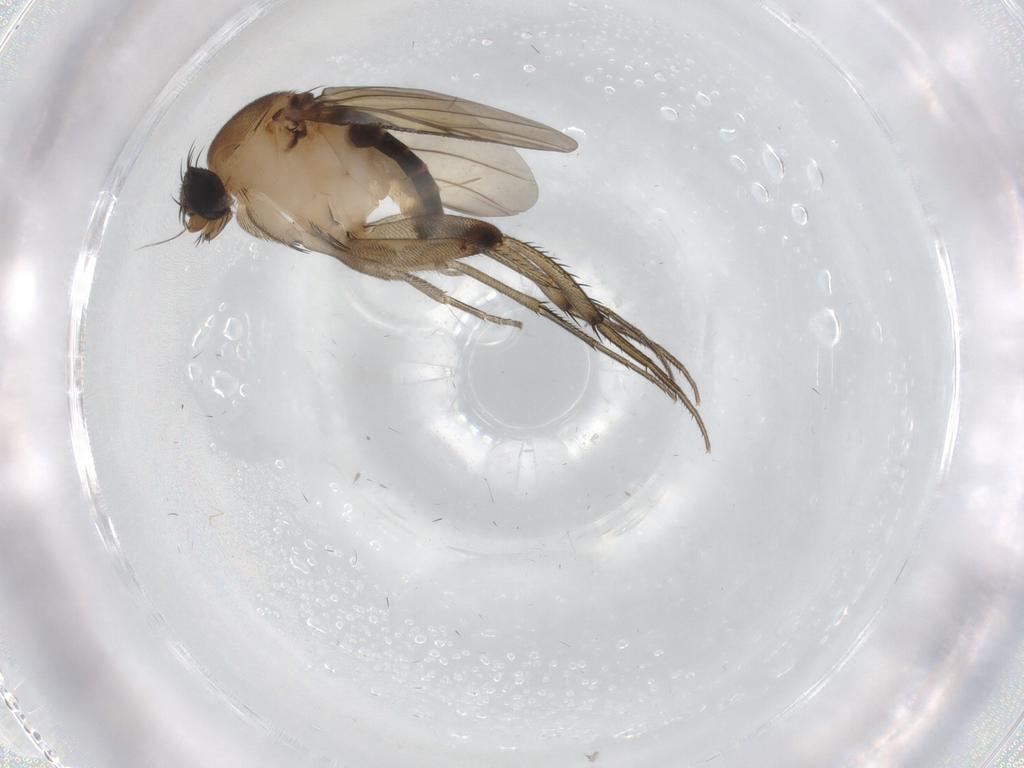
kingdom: Animalia
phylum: Arthropoda
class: Insecta
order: Diptera
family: Phoridae
